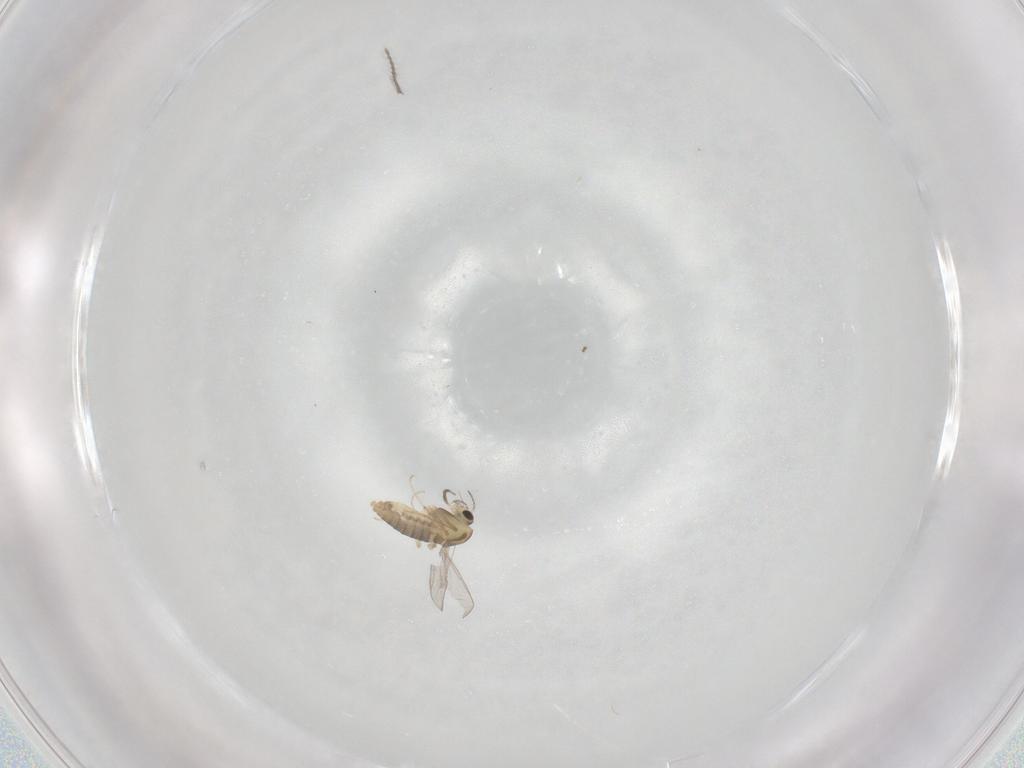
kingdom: Animalia
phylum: Arthropoda
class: Insecta
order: Diptera
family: Chironomidae
